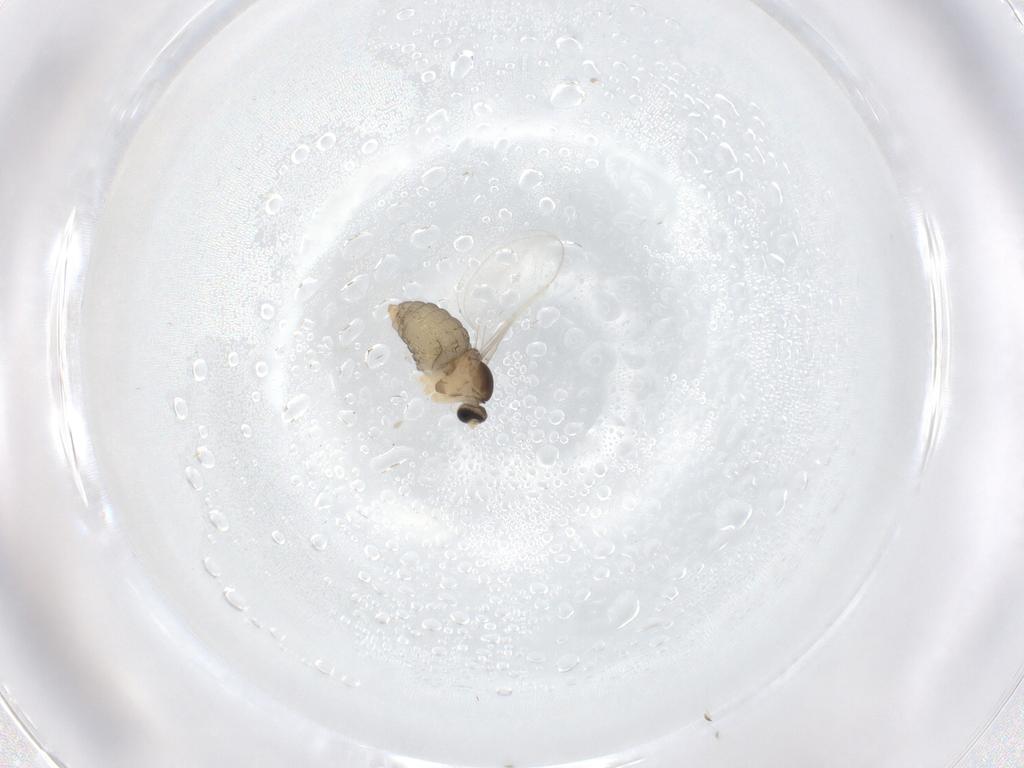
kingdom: Animalia
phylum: Arthropoda
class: Insecta
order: Diptera
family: Cecidomyiidae
